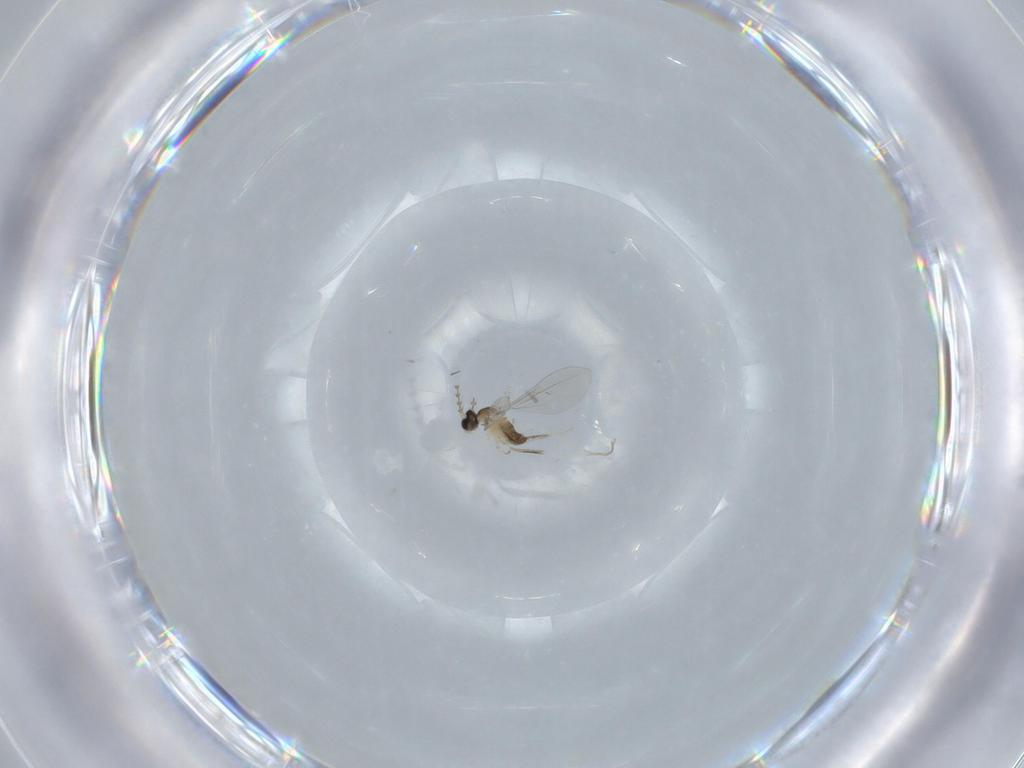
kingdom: Animalia
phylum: Arthropoda
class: Insecta
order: Diptera
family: Cecidomyiidae
